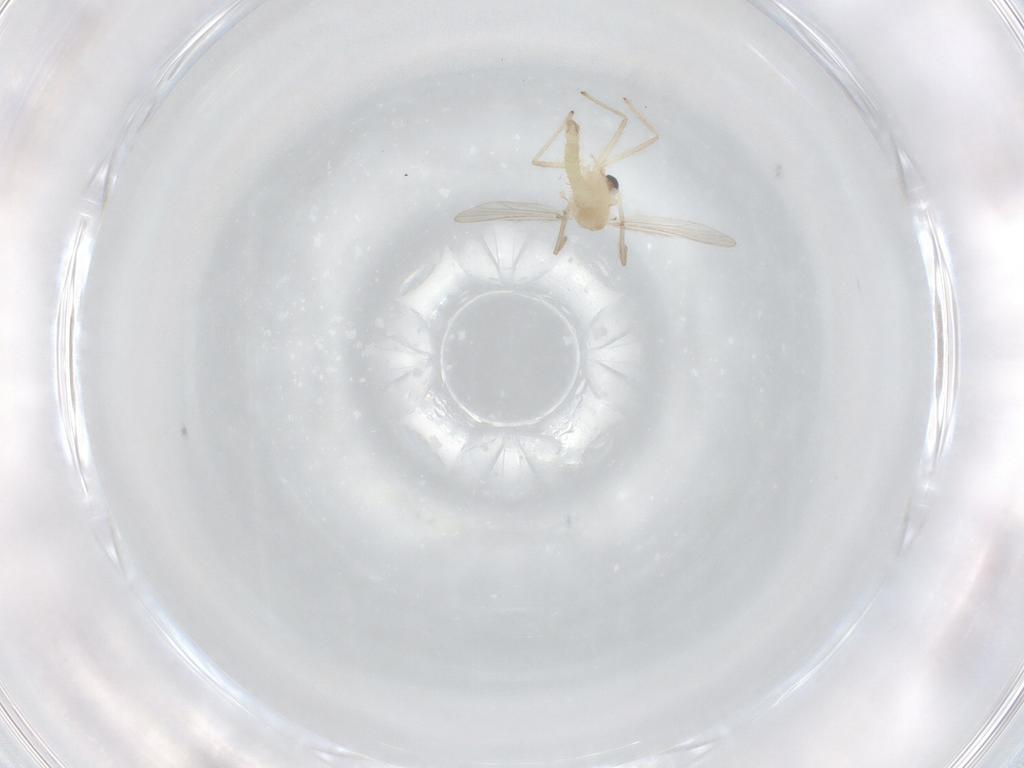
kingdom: Animalia
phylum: Arthropoda
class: Insecta
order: Diptera
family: Chironomidae
